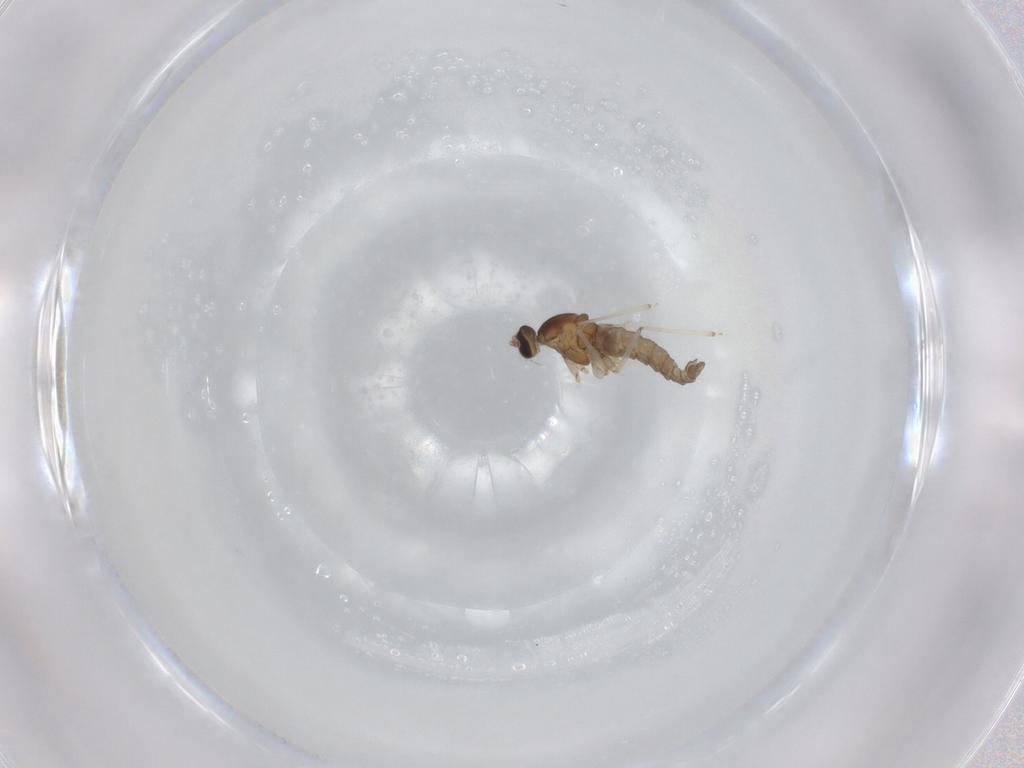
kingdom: Animalia
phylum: Arthropoda
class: Insecta
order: Diptera
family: Cecidomyiidae
